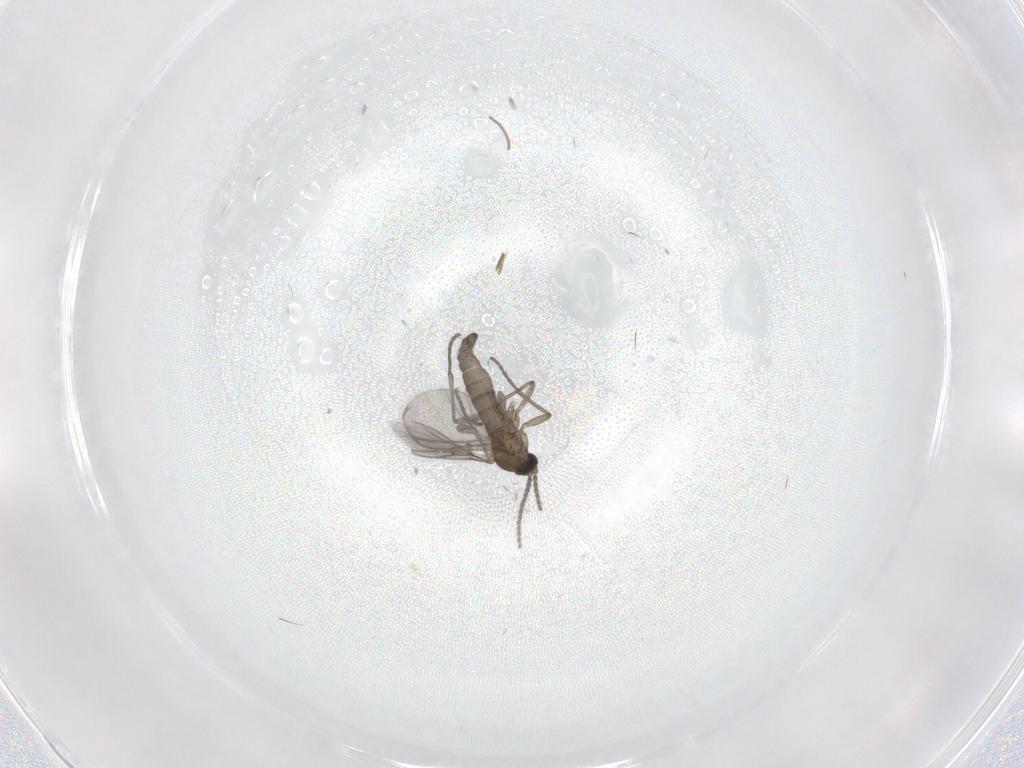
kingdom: Animalia
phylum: Arthropoda
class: Insecta
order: Diptera
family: Sciaridae
